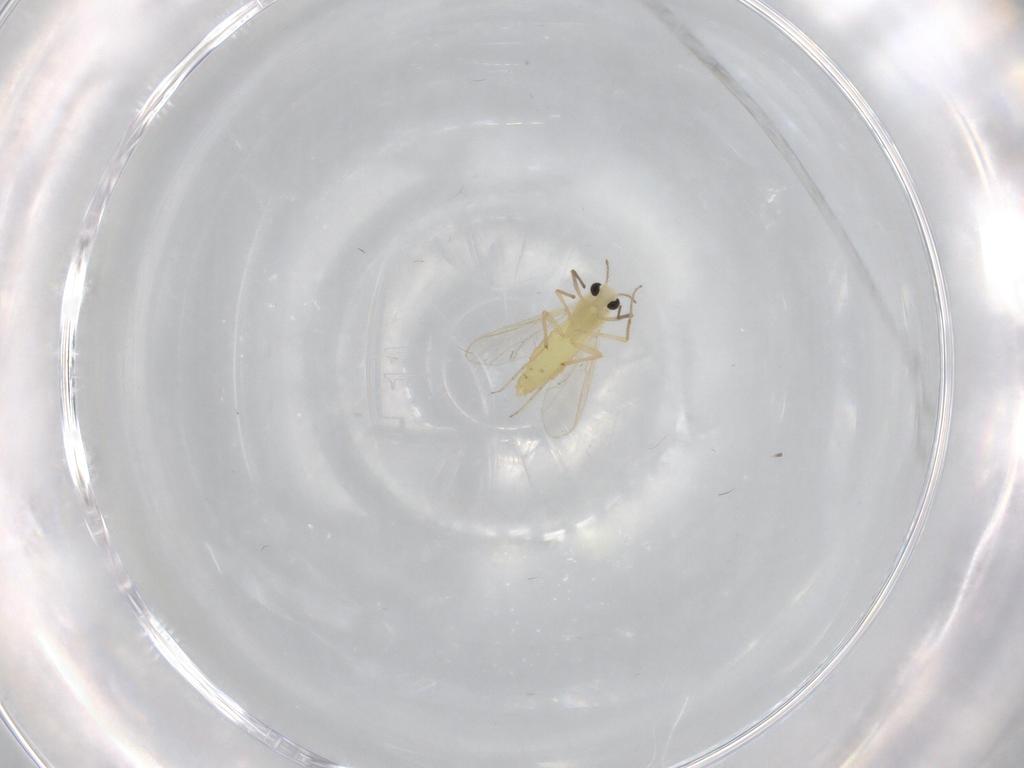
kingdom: Animalia
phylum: Arthropoda
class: Insecta
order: Diptera
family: Chironomidae
